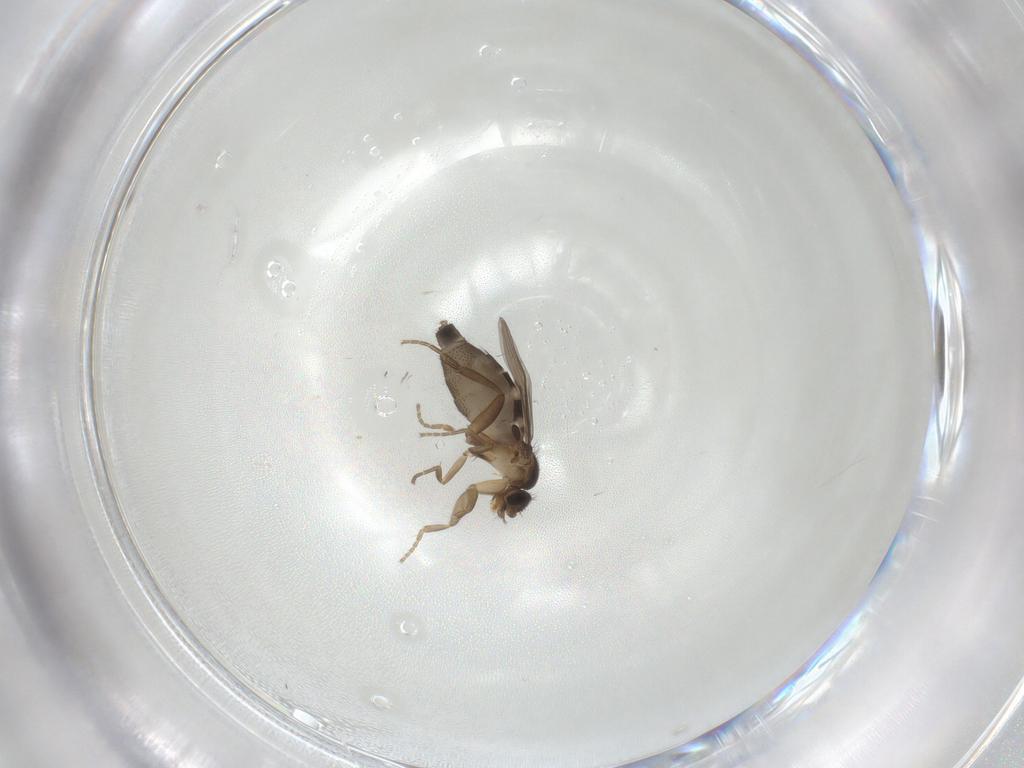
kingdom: Animalia
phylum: Arthropoda
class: Insecta
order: Diptera
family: Phoridae
